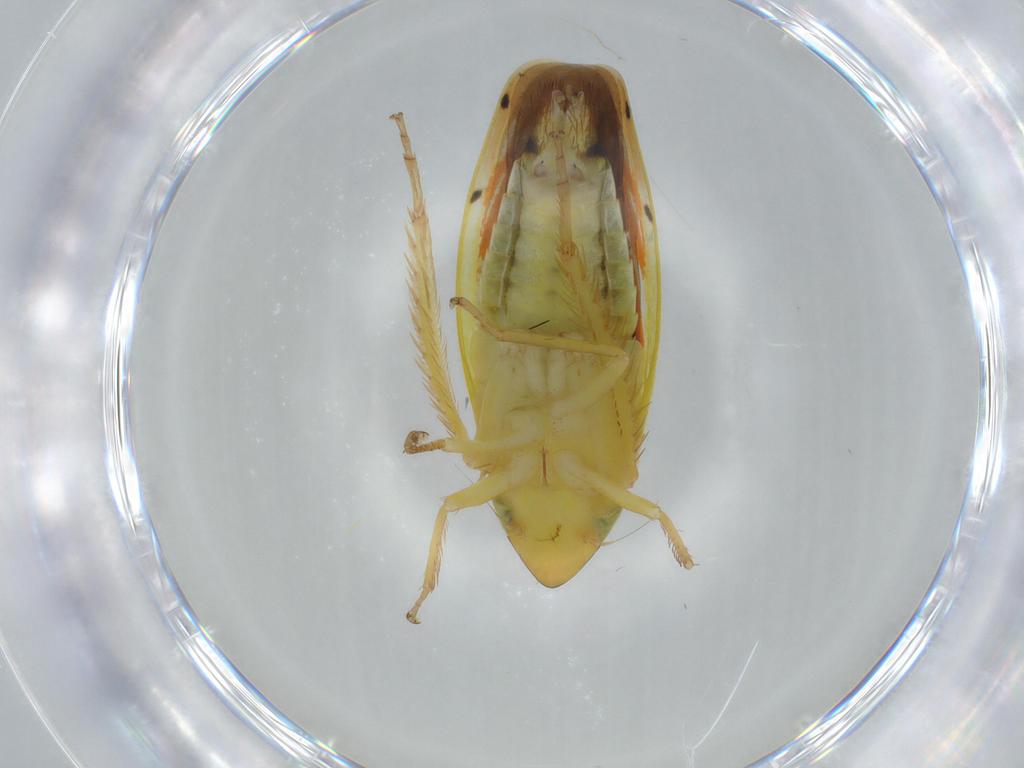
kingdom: Animalia
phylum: Arthropoda
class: Insecta
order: Hemiptera
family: Cicadellidae
